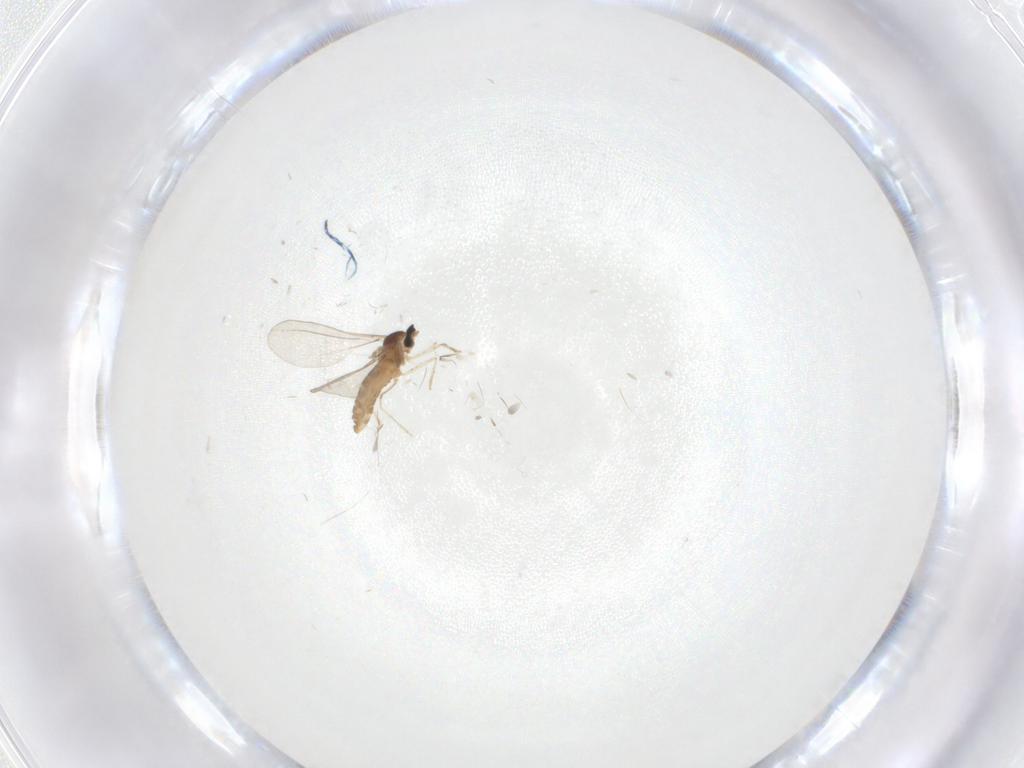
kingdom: Animalia
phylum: Arthropoda
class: Insecta
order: Diptera
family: Cecidomyiidae
